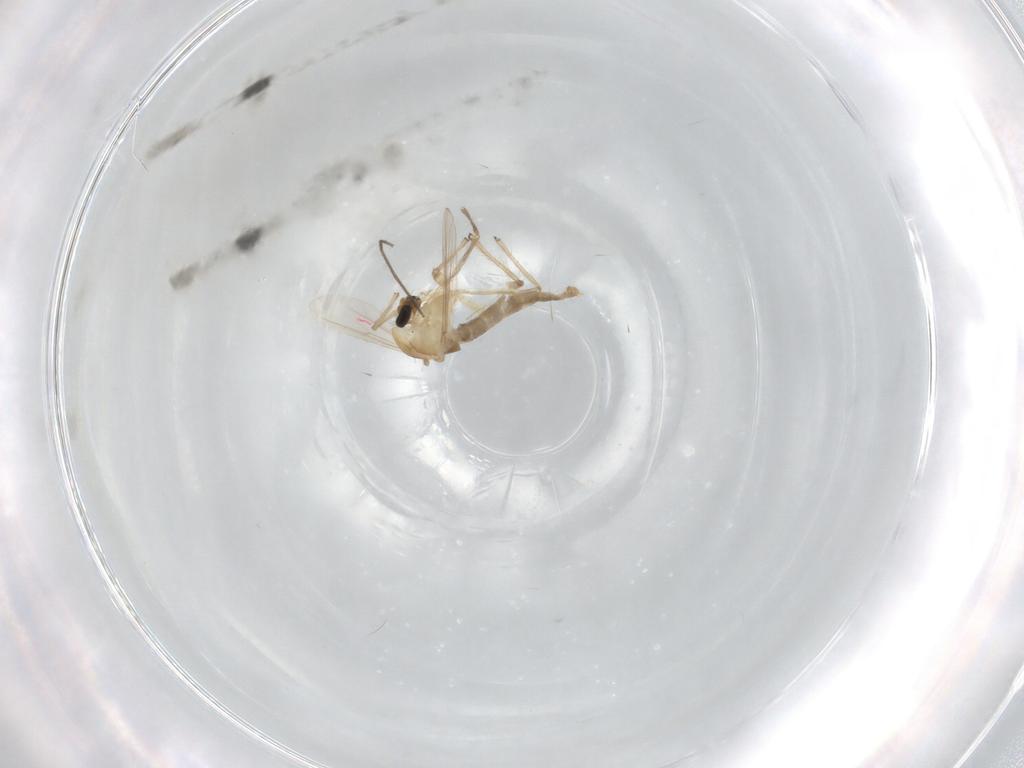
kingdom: Animalia
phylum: Arthropoda
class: Insecta
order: Diptera
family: Chironomidae
